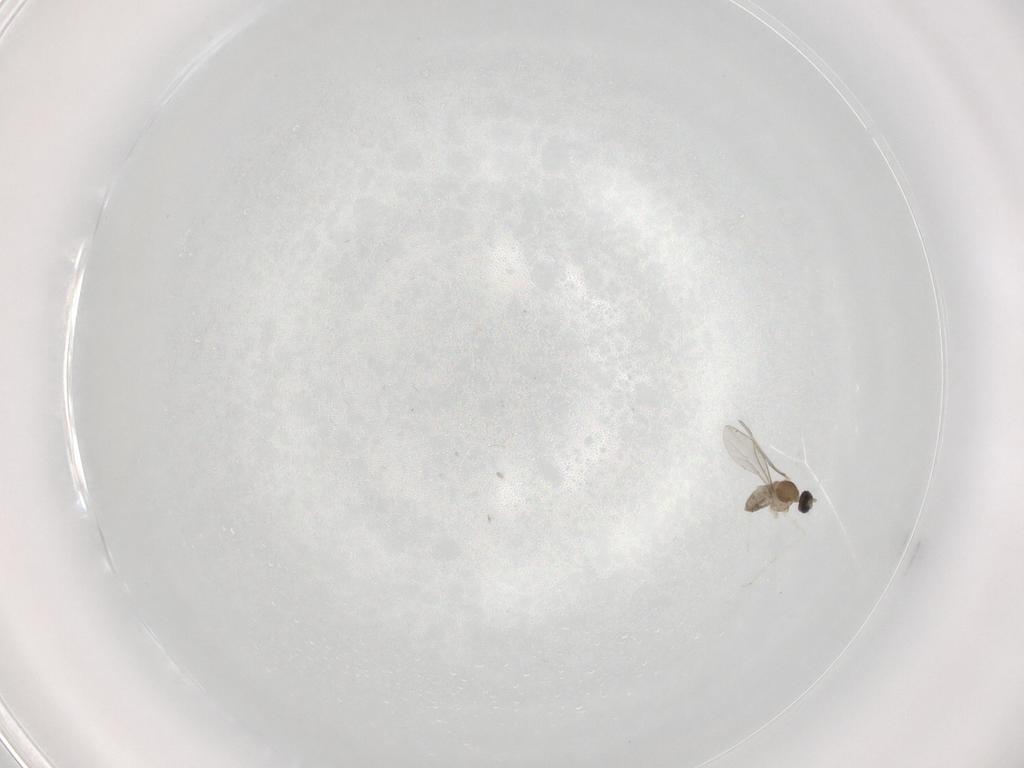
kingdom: Animalia
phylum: Arthropoda
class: Insecta
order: Diptera
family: Cecidomyiidae
